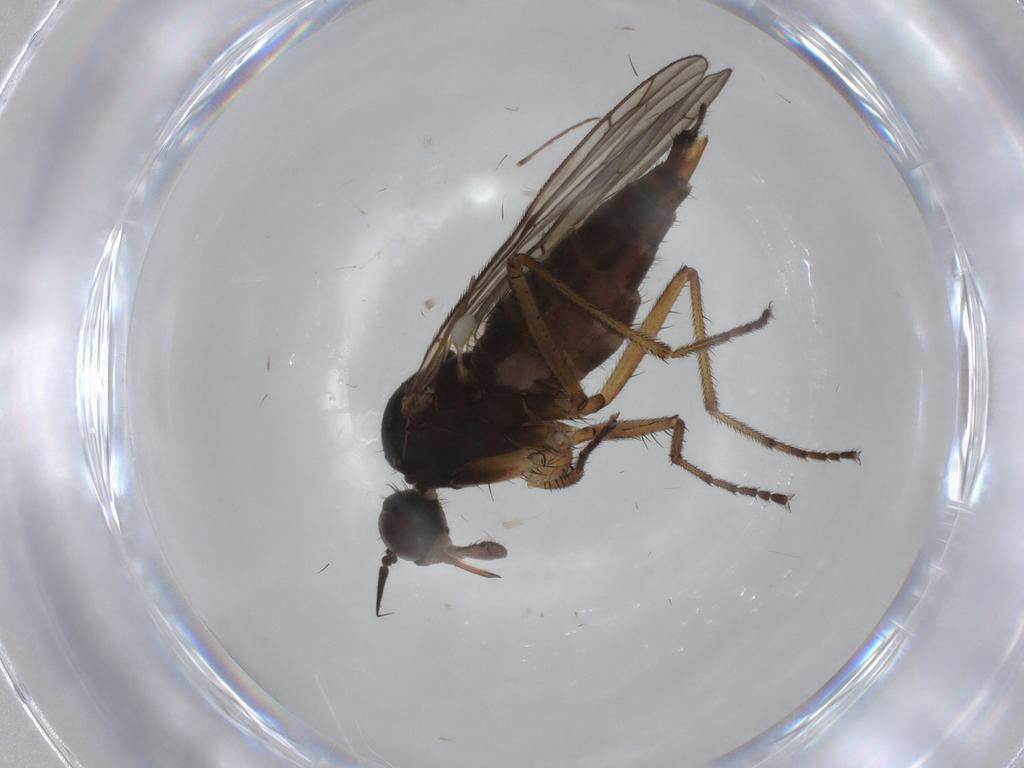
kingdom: Animalia
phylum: Arthropoda
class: Insecta
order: Diptera
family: Empididae
